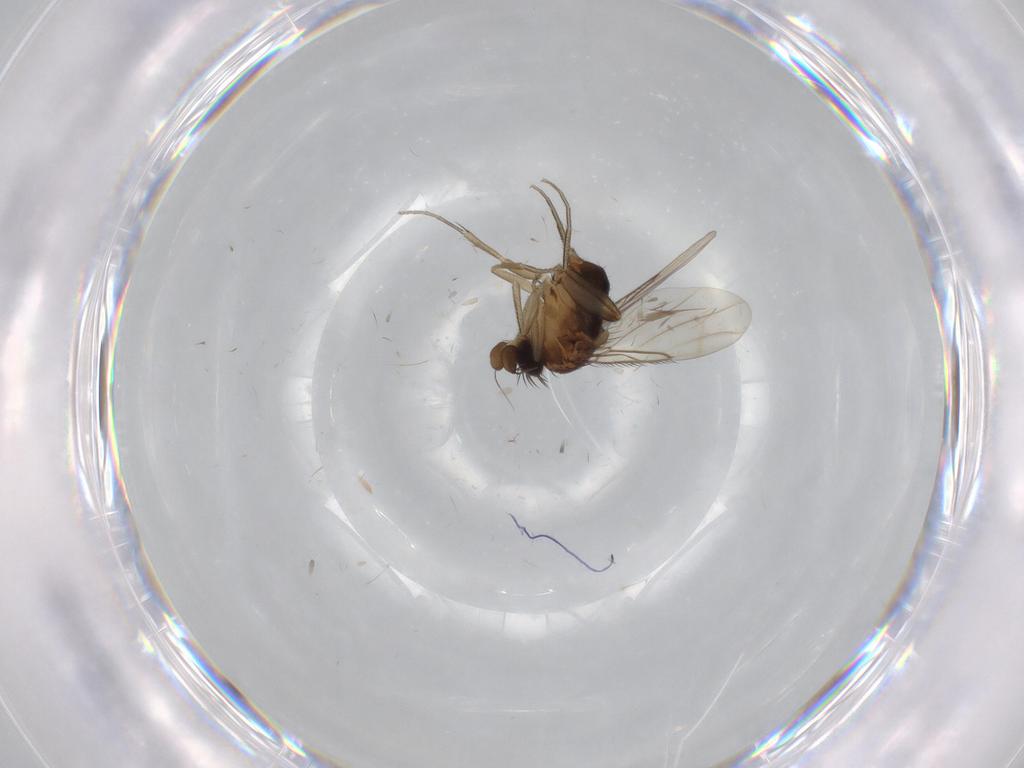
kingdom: Animalia
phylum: Arthropoda
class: Insecta
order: Diptera
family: Phoridae
